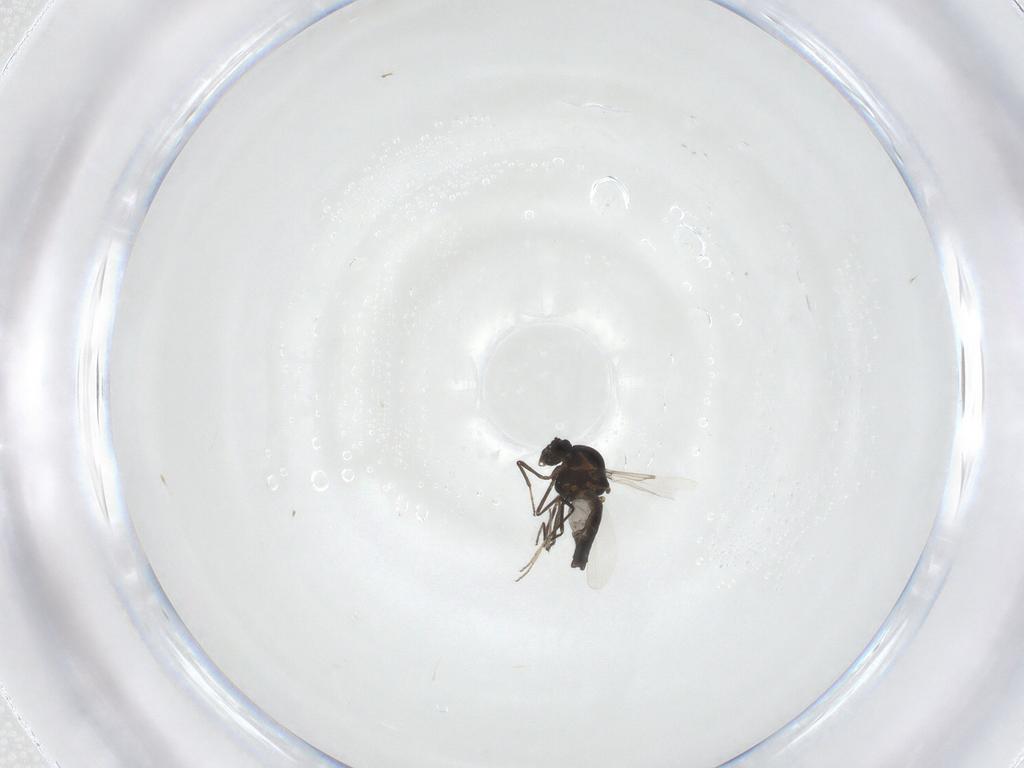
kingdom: Animalia
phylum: Arthropoda
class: Insecta
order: Diptera
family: Ceratopogonidae
